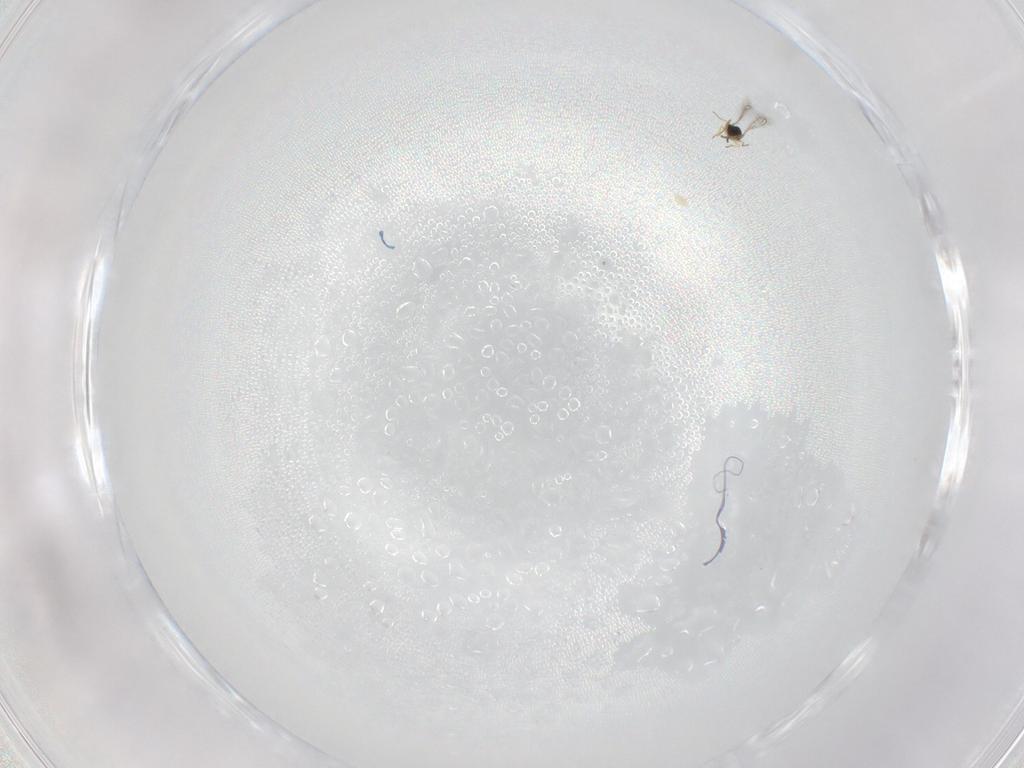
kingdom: Animalia
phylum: Arthropoda
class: Insecta
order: Hymenoptera
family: Mymaridae
